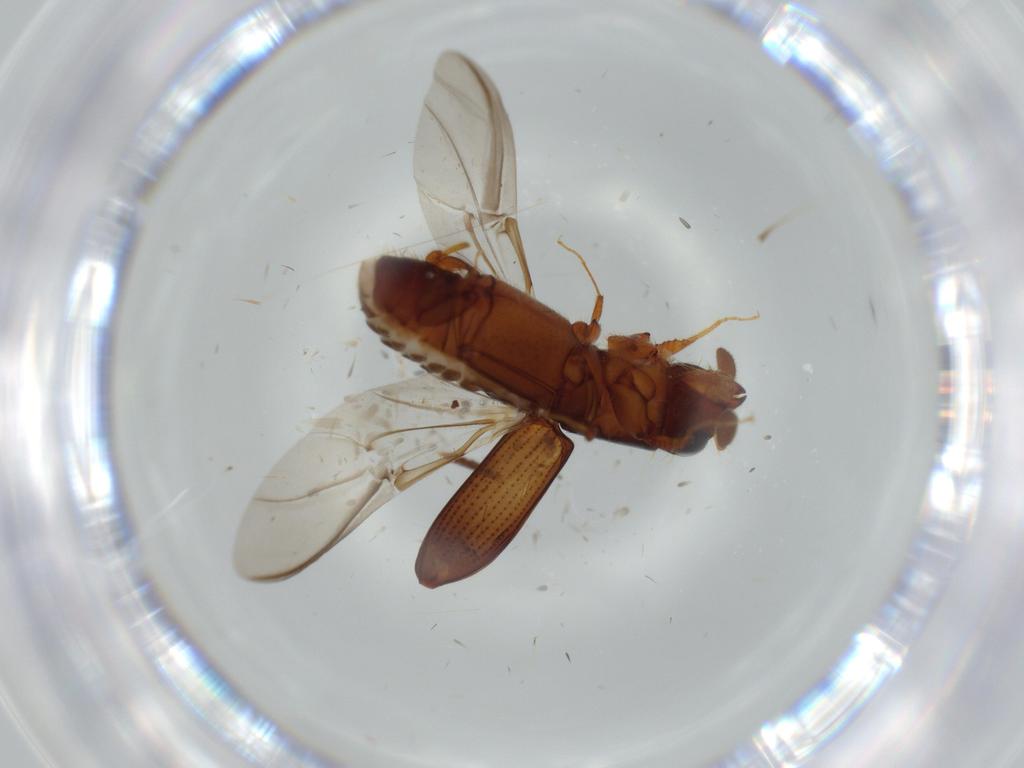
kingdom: Animalia
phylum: Arthropoda
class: Insecta
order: Coleoptera
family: Curculionidae
